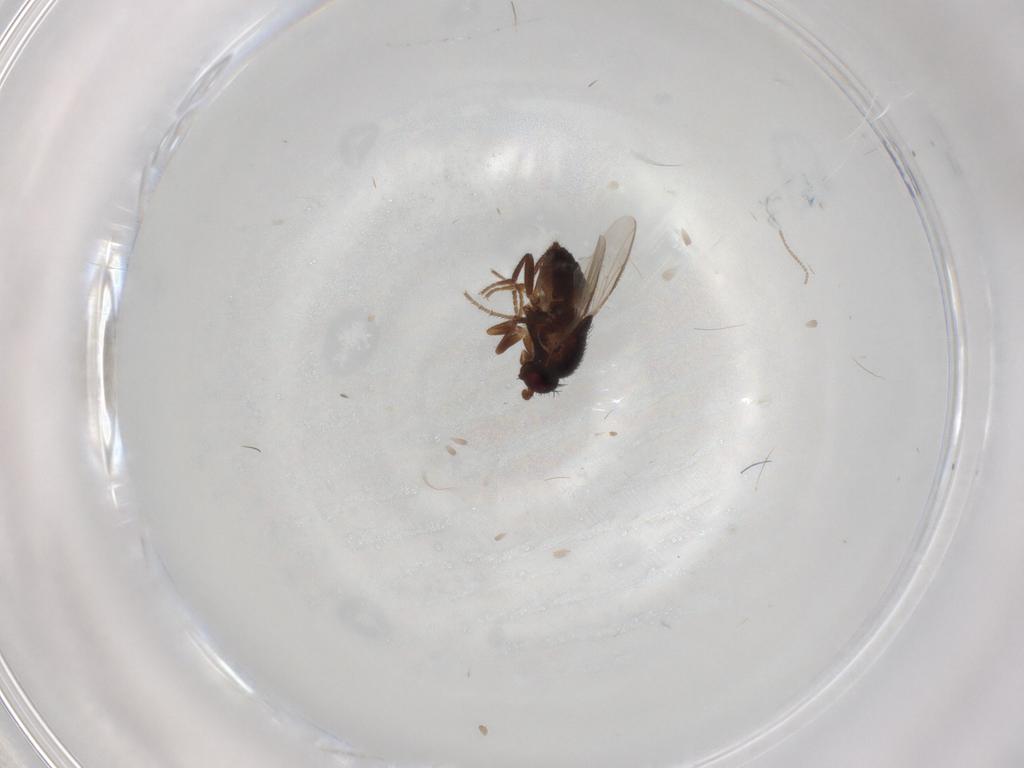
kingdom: Animalia
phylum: Arthropoda
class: Insecta
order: Diptera
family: Sphaeroceridae
